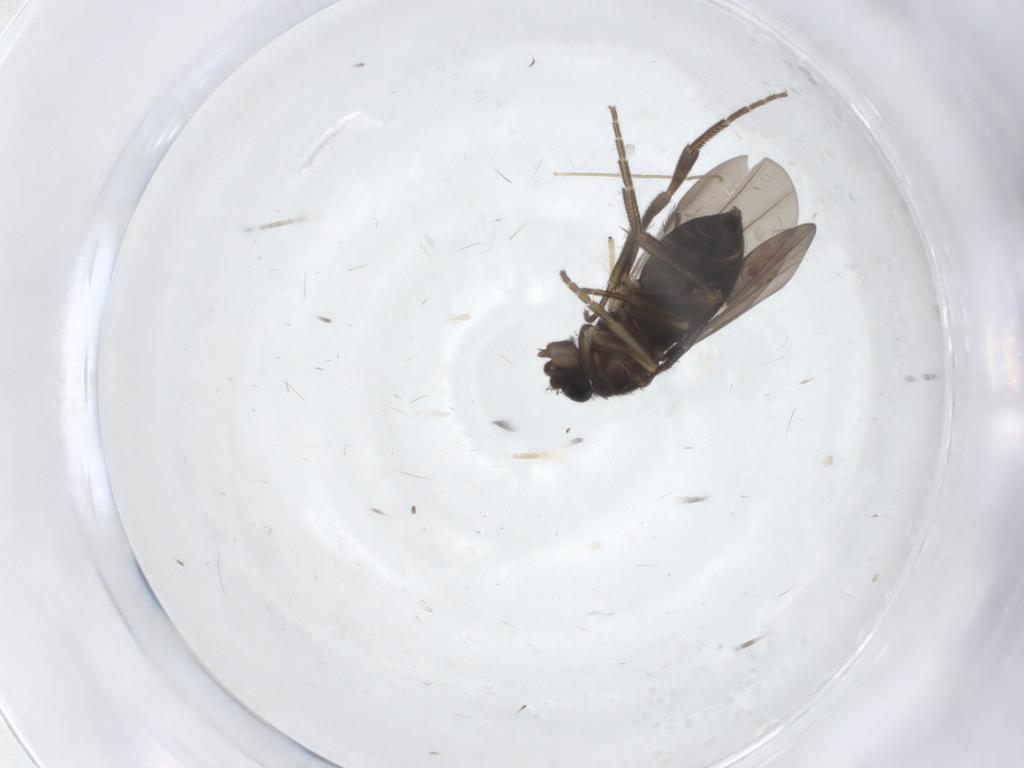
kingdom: Animalia
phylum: Arthropoda
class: Insecta
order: Diptera
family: Phoridae
